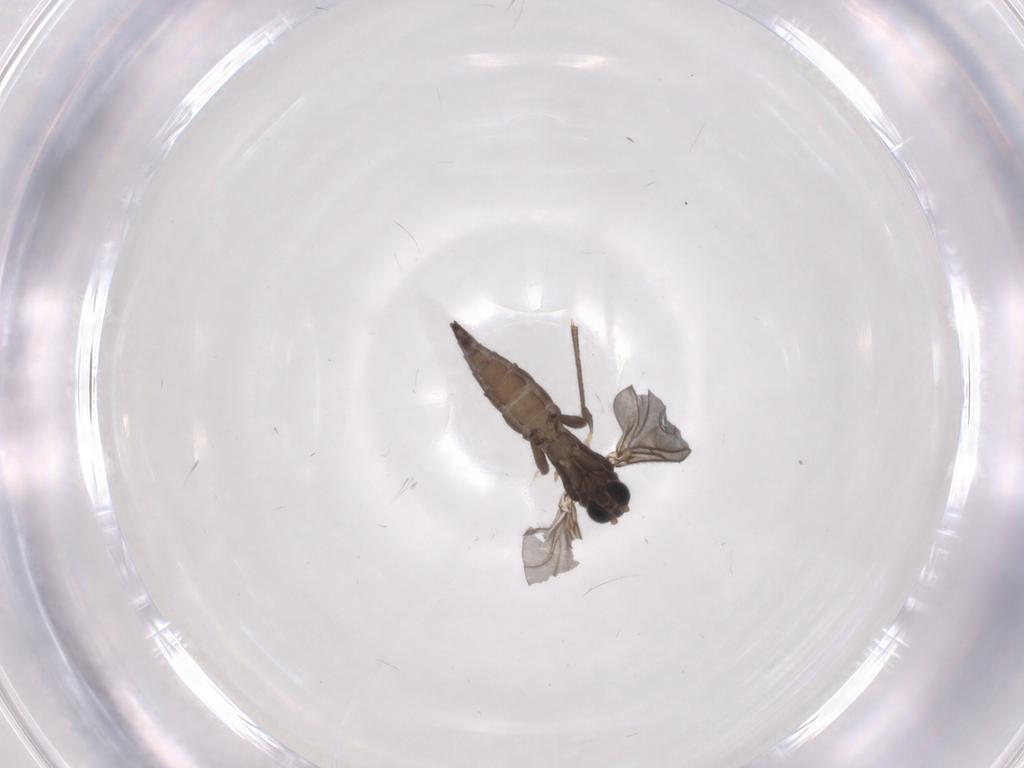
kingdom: Animalia
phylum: Arthropoda
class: Insecta
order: Diptera
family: Sciaridae
